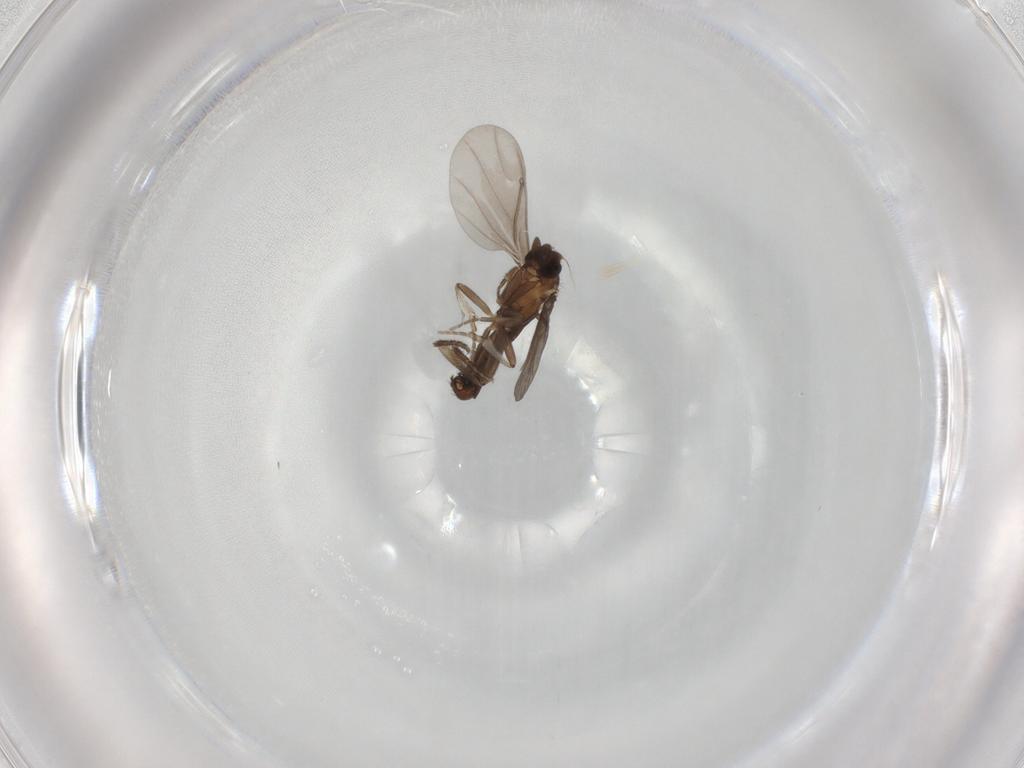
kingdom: Animalia
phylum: Arthropoda
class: Insecta
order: Diptera
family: Phoridae
